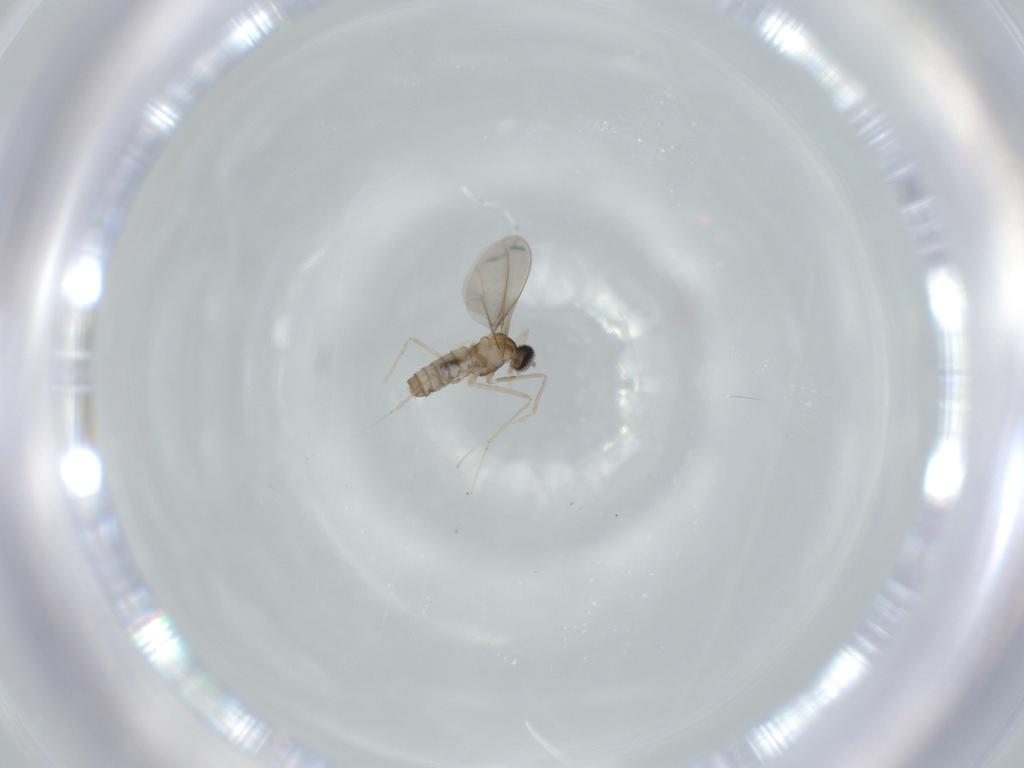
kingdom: Animalia
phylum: Arthropoda
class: Insecta
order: Diptera
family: Cecidomyiidae
